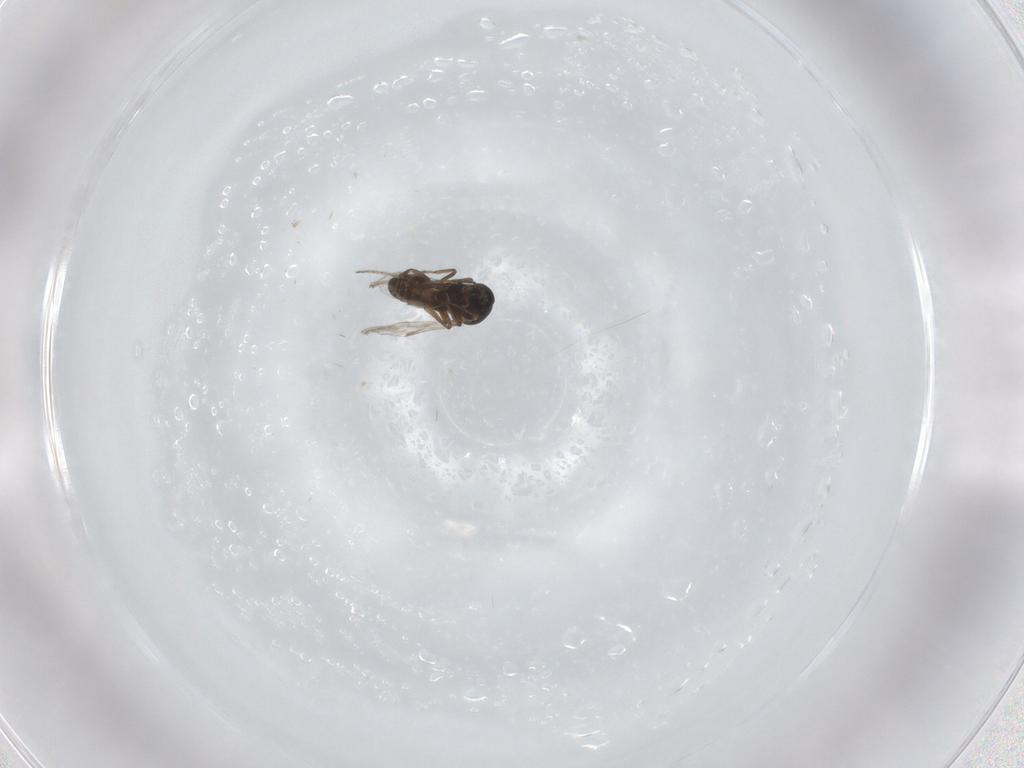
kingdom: Animalia
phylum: Arthropoda
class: Insecta
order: Diptera
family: Ceratopogonidae
